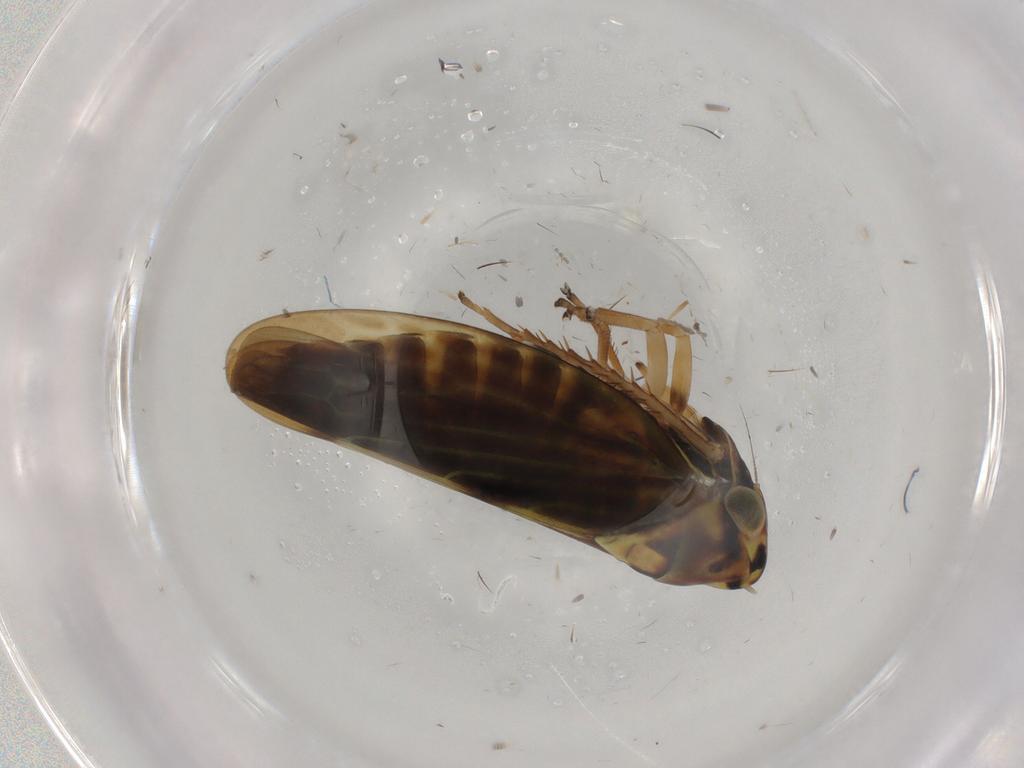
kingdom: Animalia
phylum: Arthropoda
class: Insecta
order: Hemiptera
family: Cicadellidae
